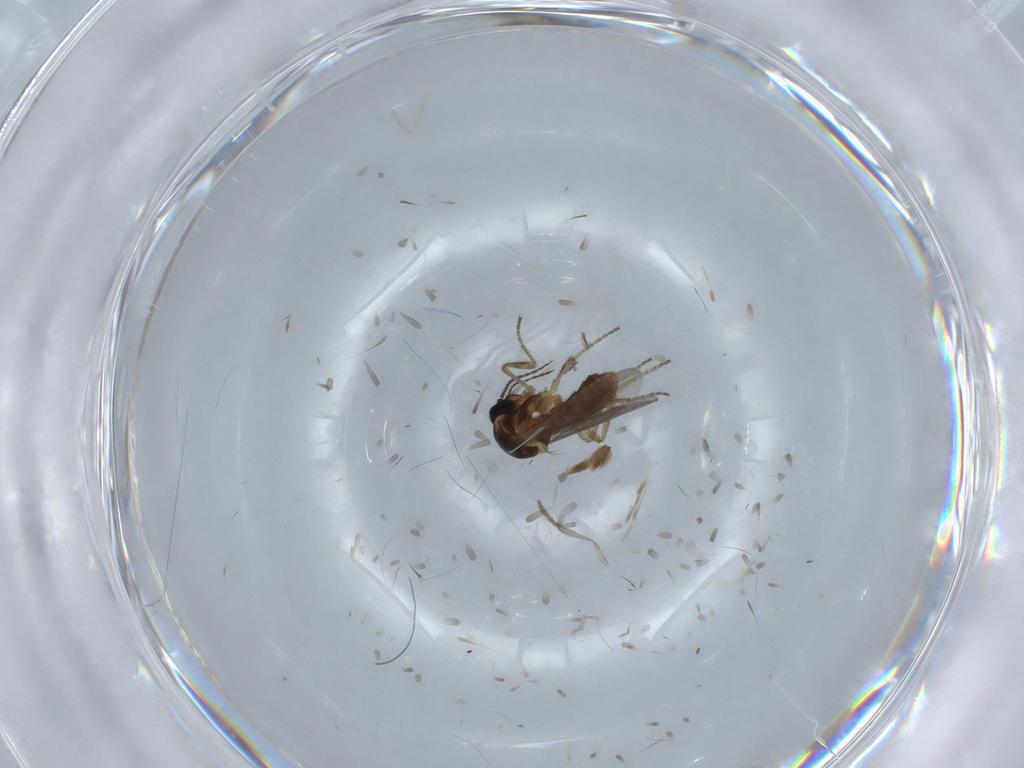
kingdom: Animalia
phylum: Arthropoda
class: Insecta
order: Diptera
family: Ceratopogonidae
